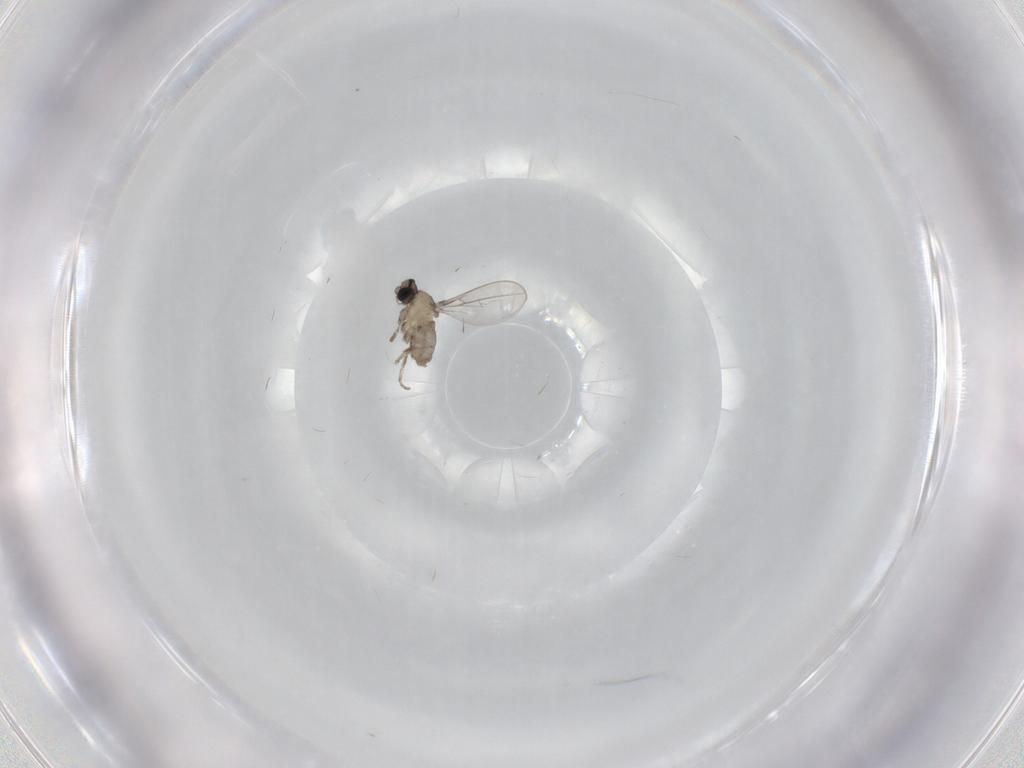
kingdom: Animalia
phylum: Arthropoda
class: Insecta
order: Diptera
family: Cecidomyiidae
